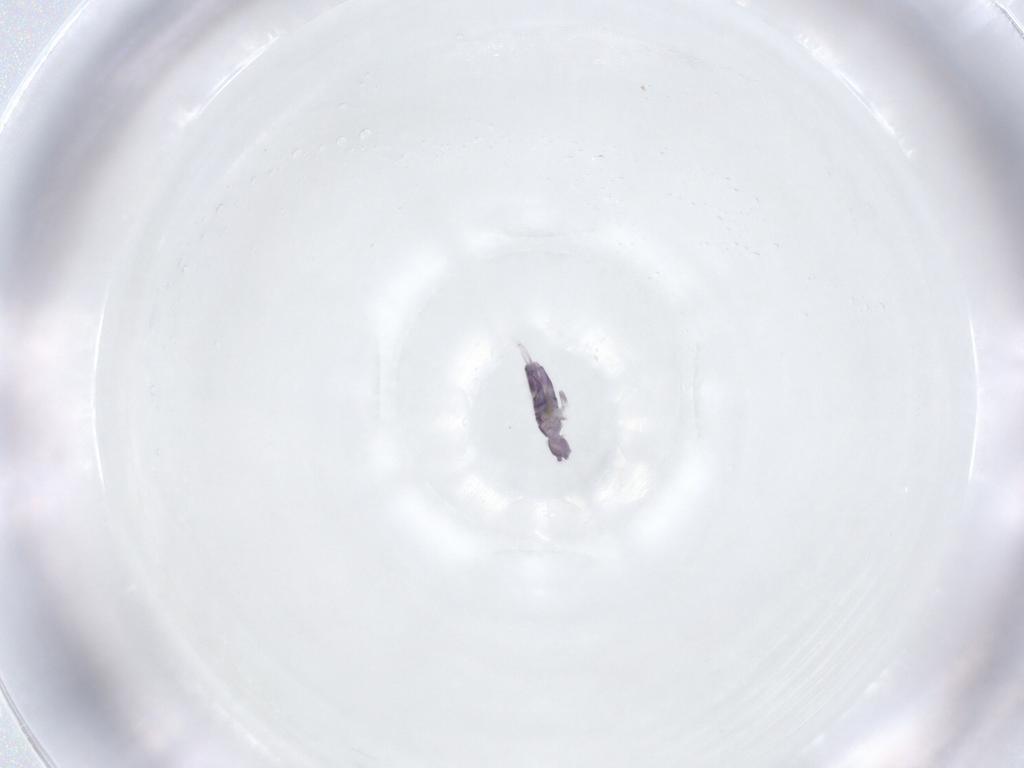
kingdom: Animalia
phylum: Arthropoda
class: Collembola
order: Entomobryomorpha
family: Entomobryidae
